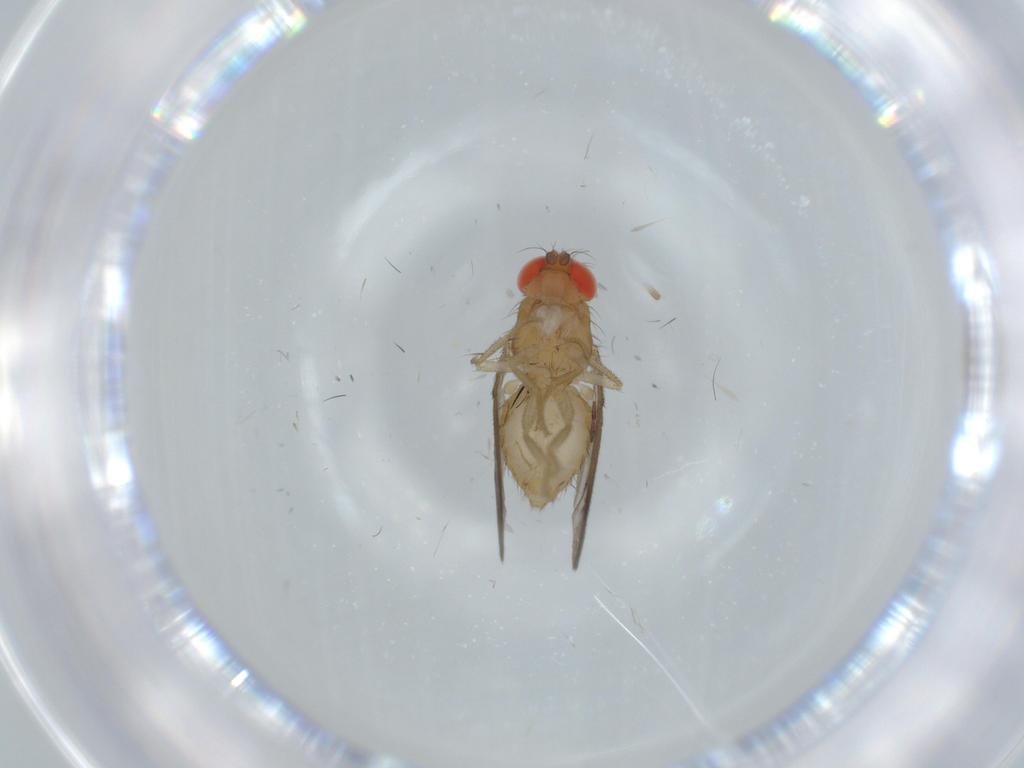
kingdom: Animalia
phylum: Arthropoda
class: Insecta
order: Diptera
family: Drosophilidae
